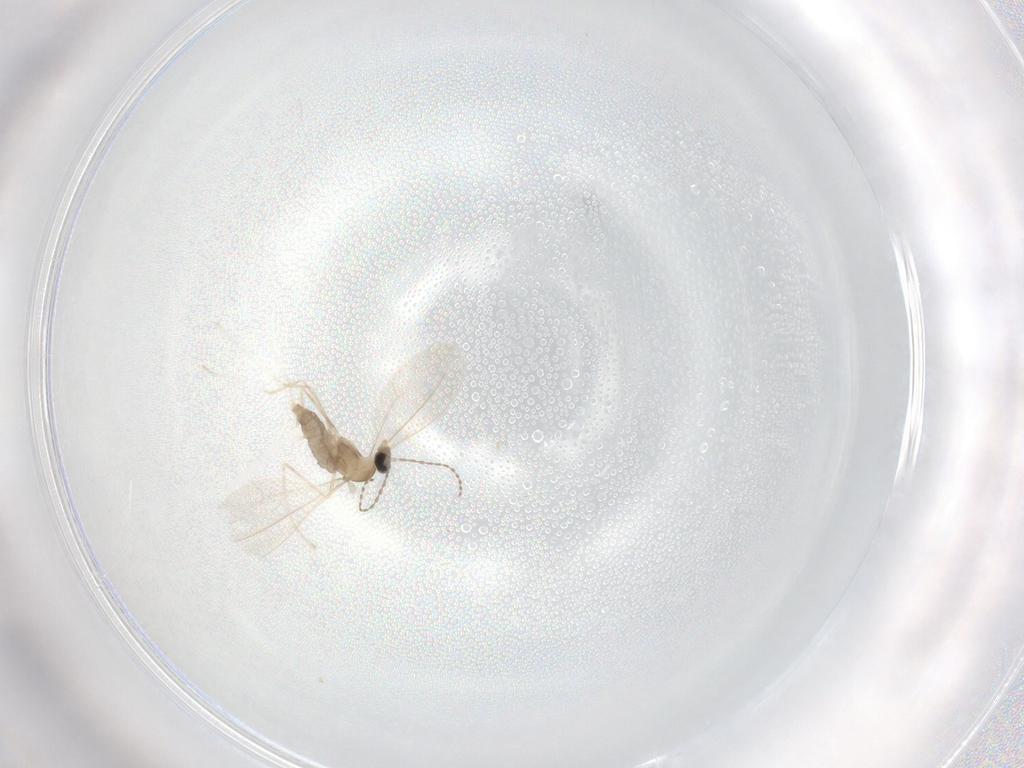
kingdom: Animalia
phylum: Arthropoda
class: Insecta
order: Diptera
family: Cecidomyiidae
